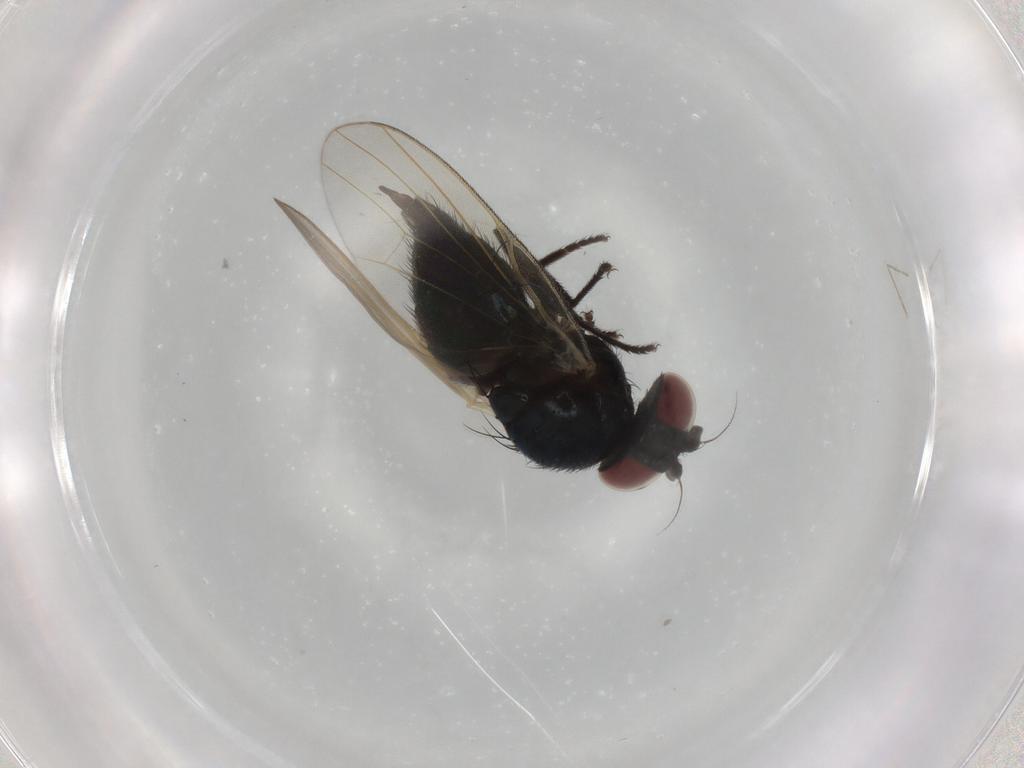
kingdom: Animalia
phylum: Arthropoda
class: Insecta
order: Diptera
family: Lonchaeidae
